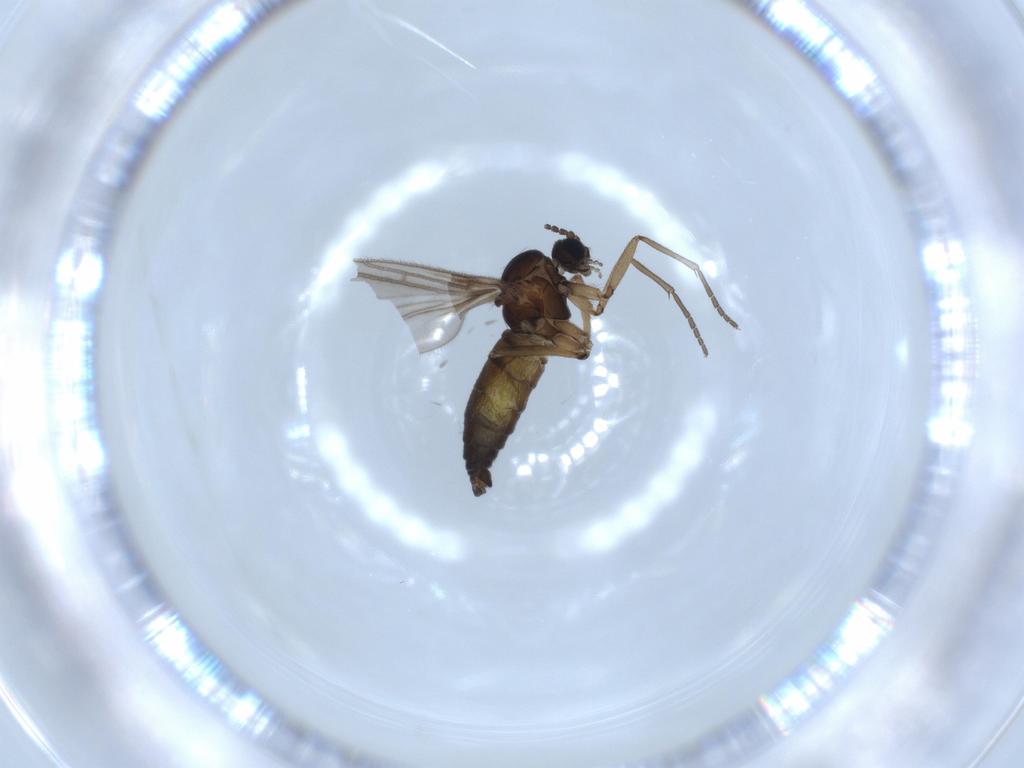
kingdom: Animalia
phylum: Arthropoda
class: Insecta
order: Diptera
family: Sciaridae
